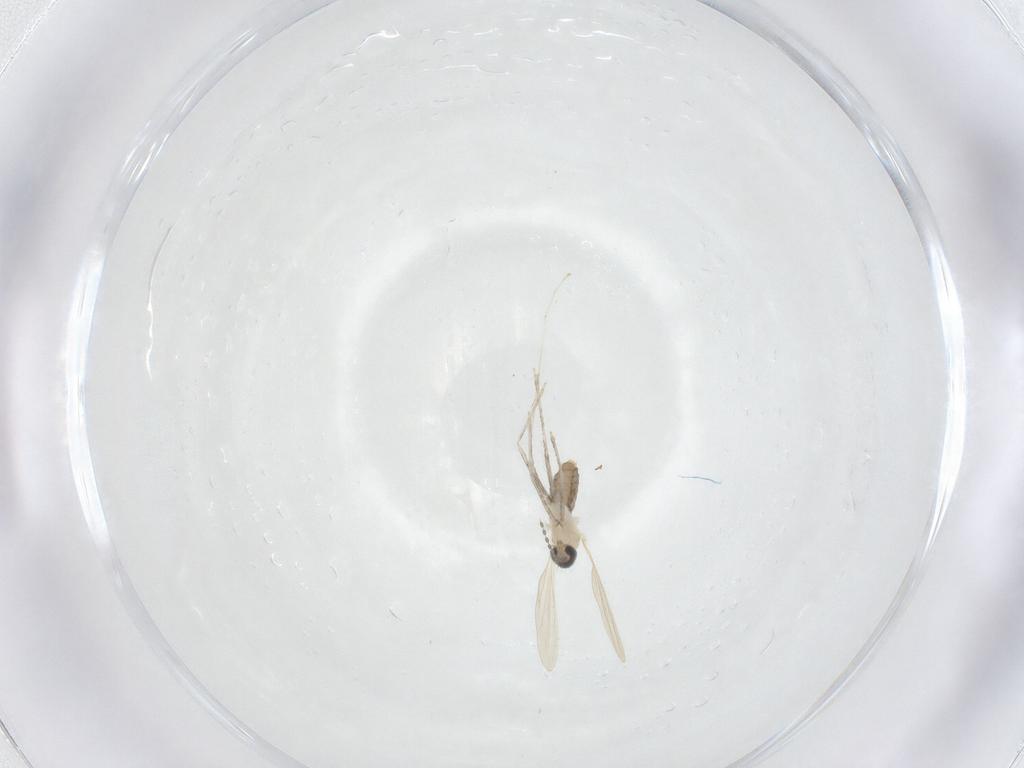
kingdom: Animalia
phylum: Arthropoda
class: Insecta
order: Diptera
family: Cecidomyiidae
